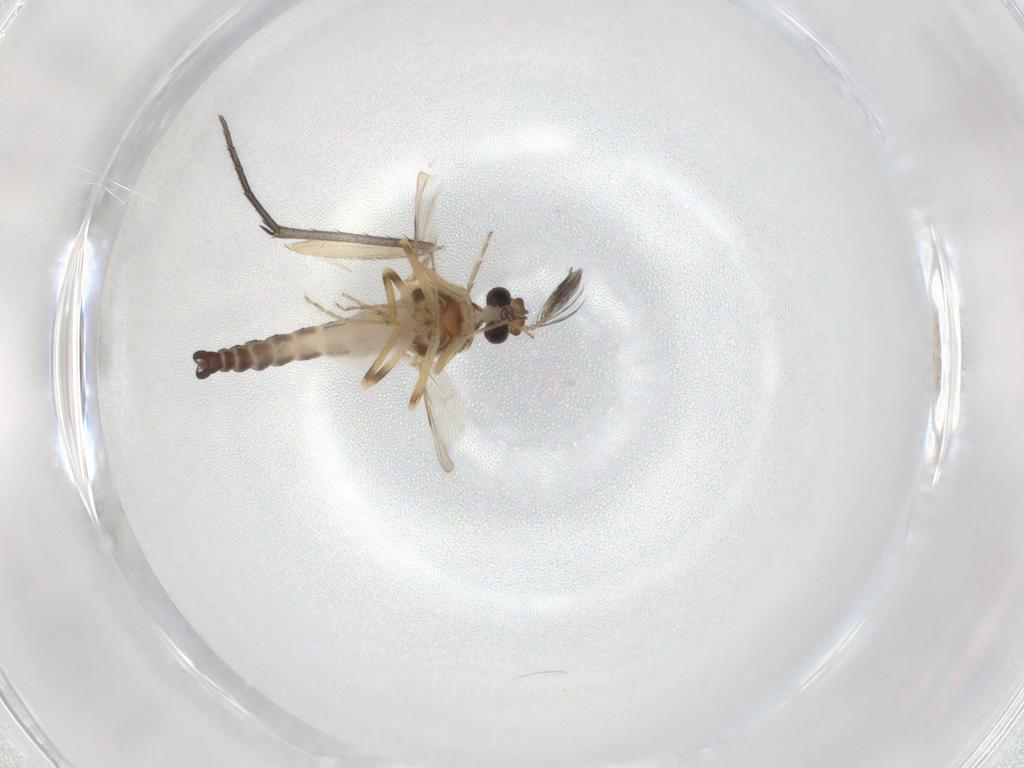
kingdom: Animalia
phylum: Arthropoda
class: Insecta
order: Diptera
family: Ceratopogonidae
